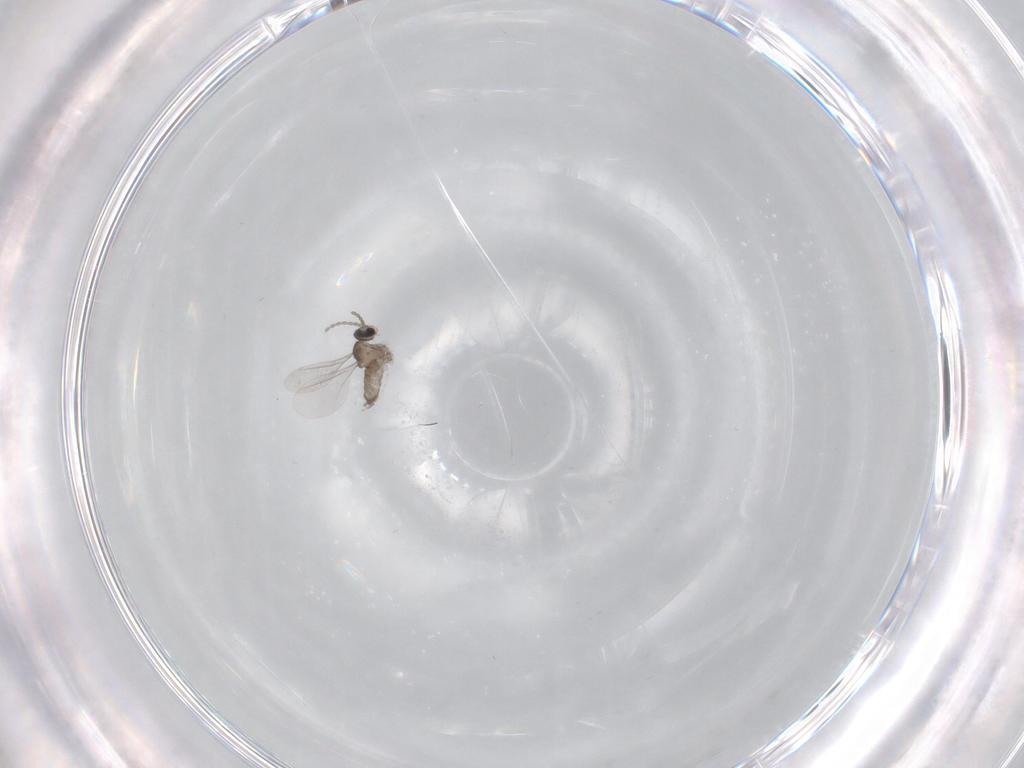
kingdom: Animalia
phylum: Arthropoda
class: Insecta
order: Diptera
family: Cecidomyiidae
